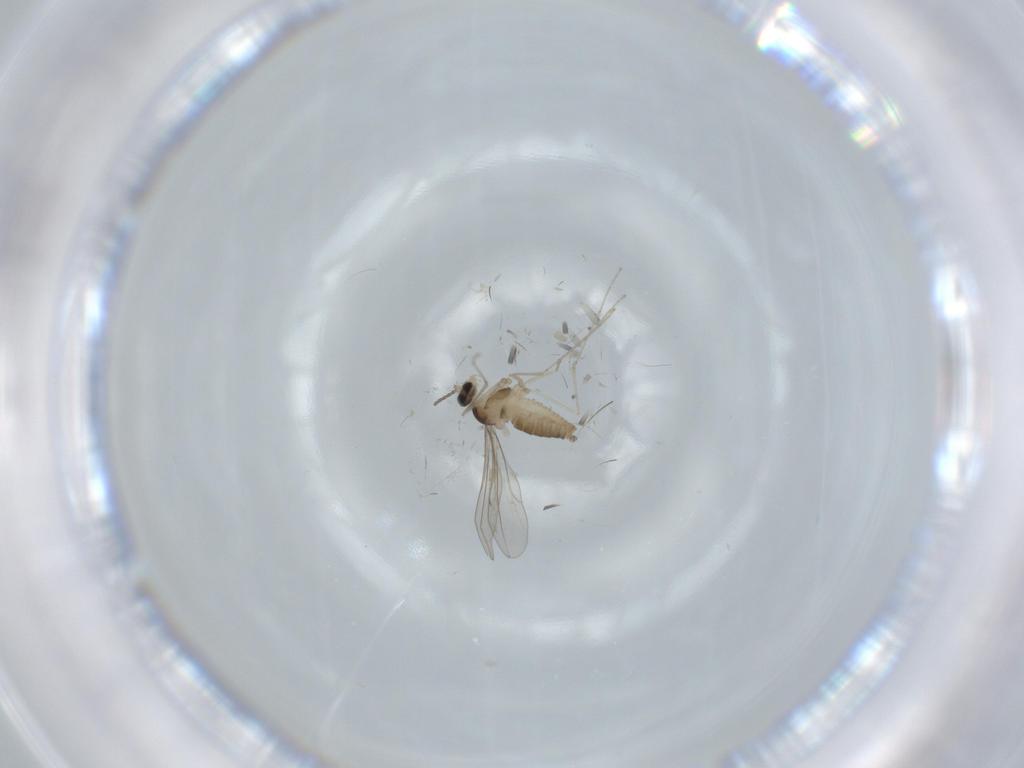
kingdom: Animalia
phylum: Arthropoda
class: Insecta
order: Diptera
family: Cecidomyiidae
